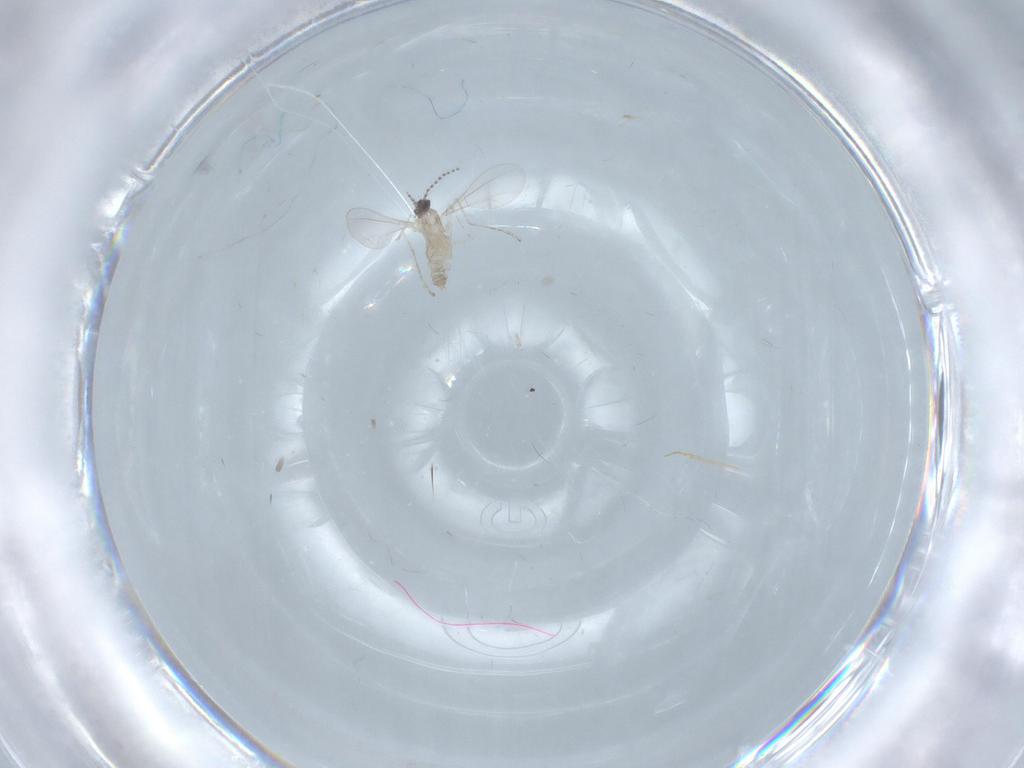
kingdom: Animalia
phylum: Arthropoda
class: Insecta
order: Diptera
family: Cecidomyiidae
